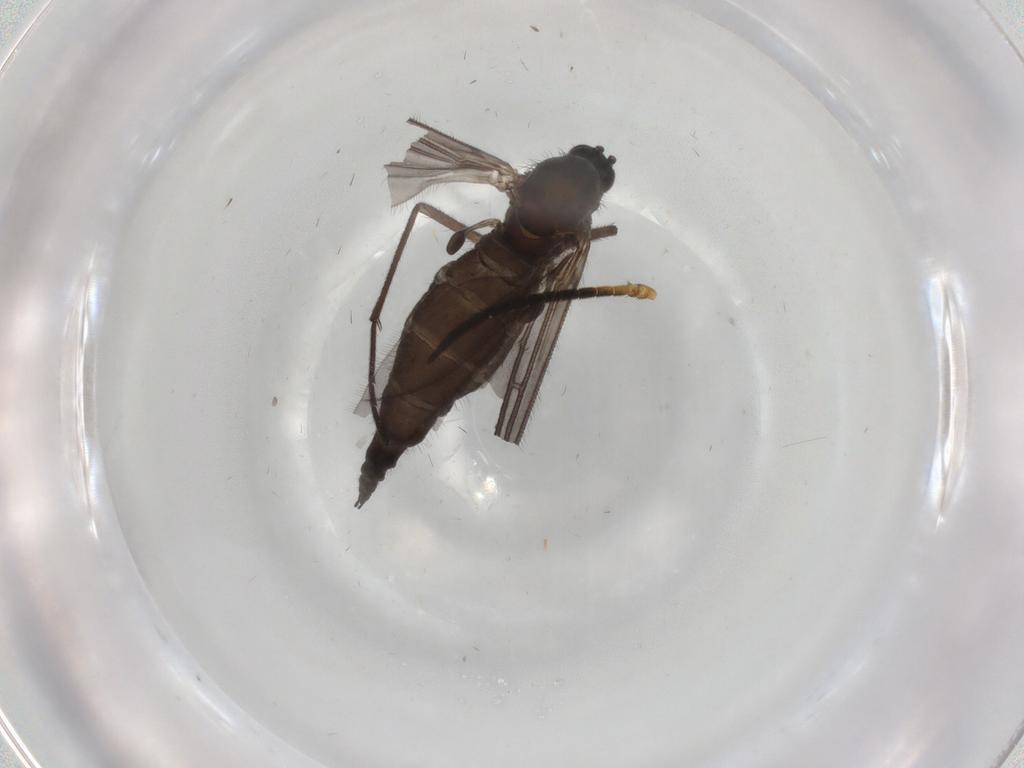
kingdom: Animalia
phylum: Arthropoda
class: Insecta
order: Diptera
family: Sciaridae
